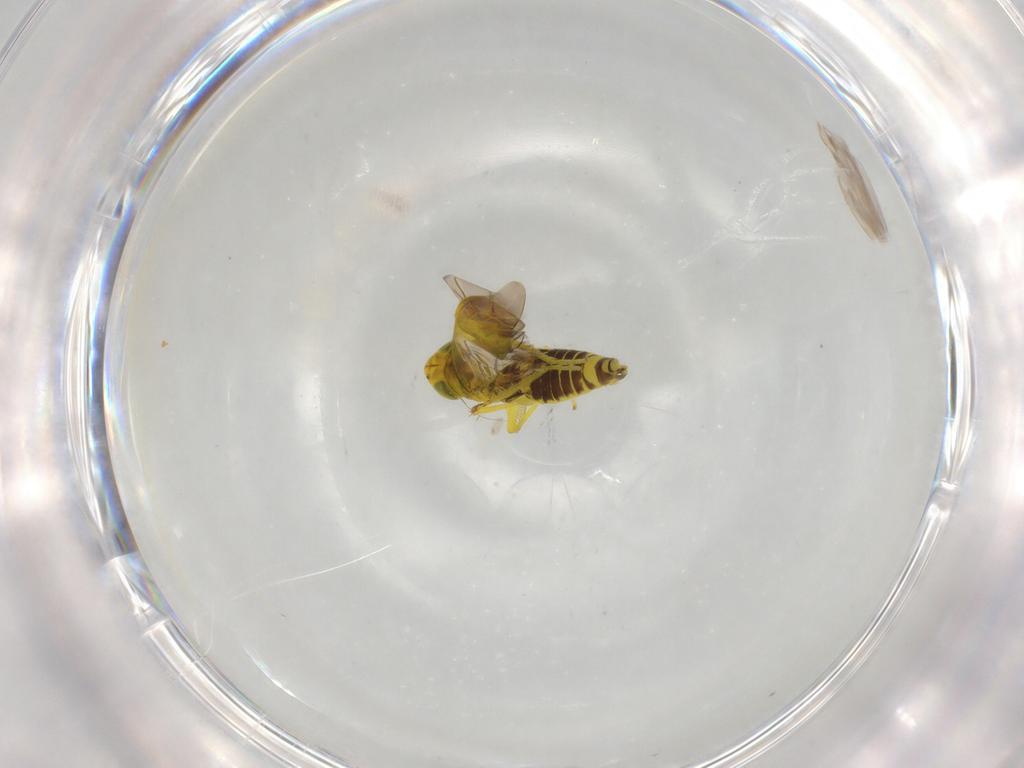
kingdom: Animalia
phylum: Arthropoda
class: Insecta
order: Hemiptera
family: Cicadellidae
